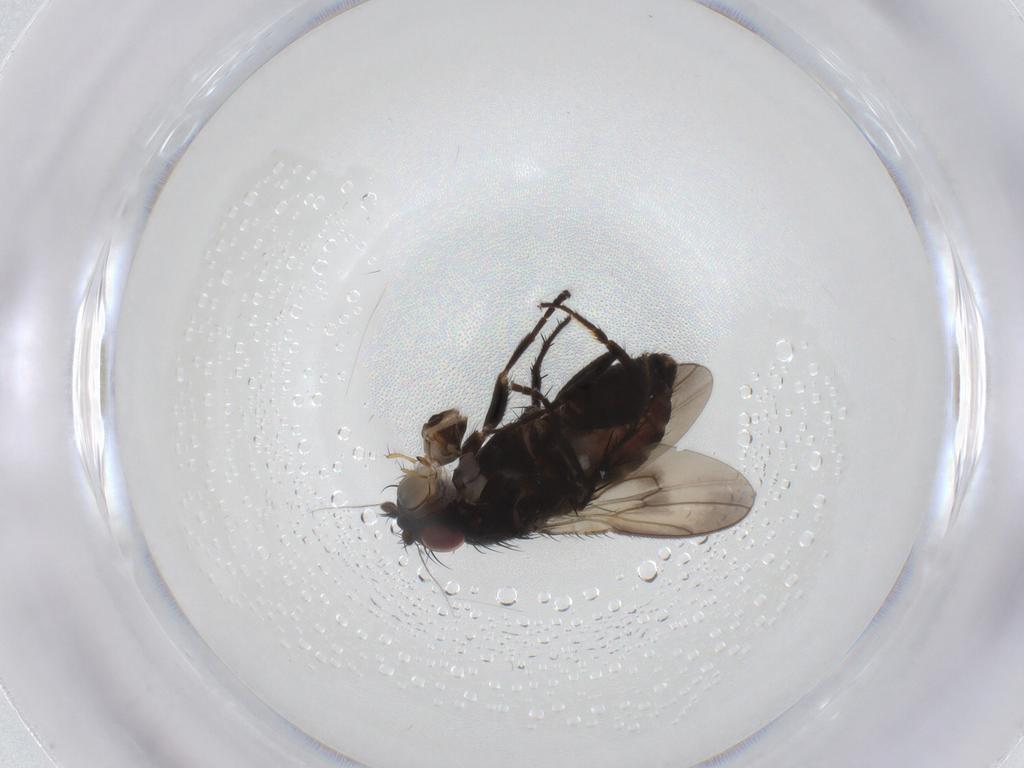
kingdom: Animalia
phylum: Arthropoda
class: Insecta
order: Diptera
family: Sphaeroceridae
